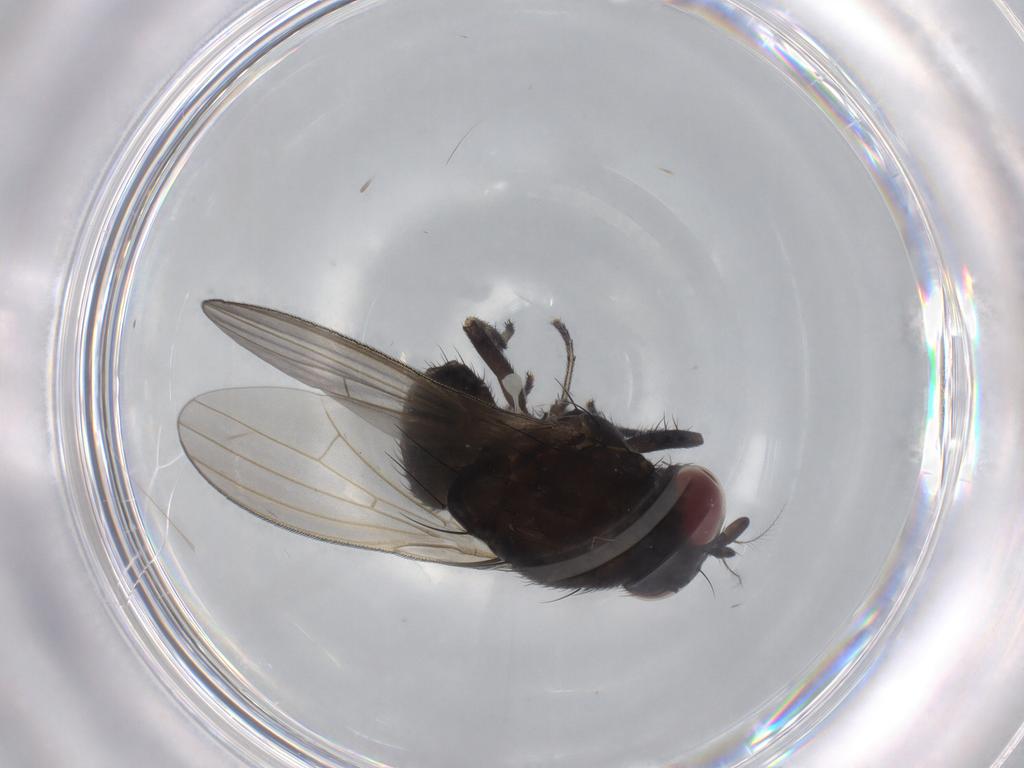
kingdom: Animalia
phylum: Arthropoda
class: Insecta
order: Diptera
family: Lauxaniidae
